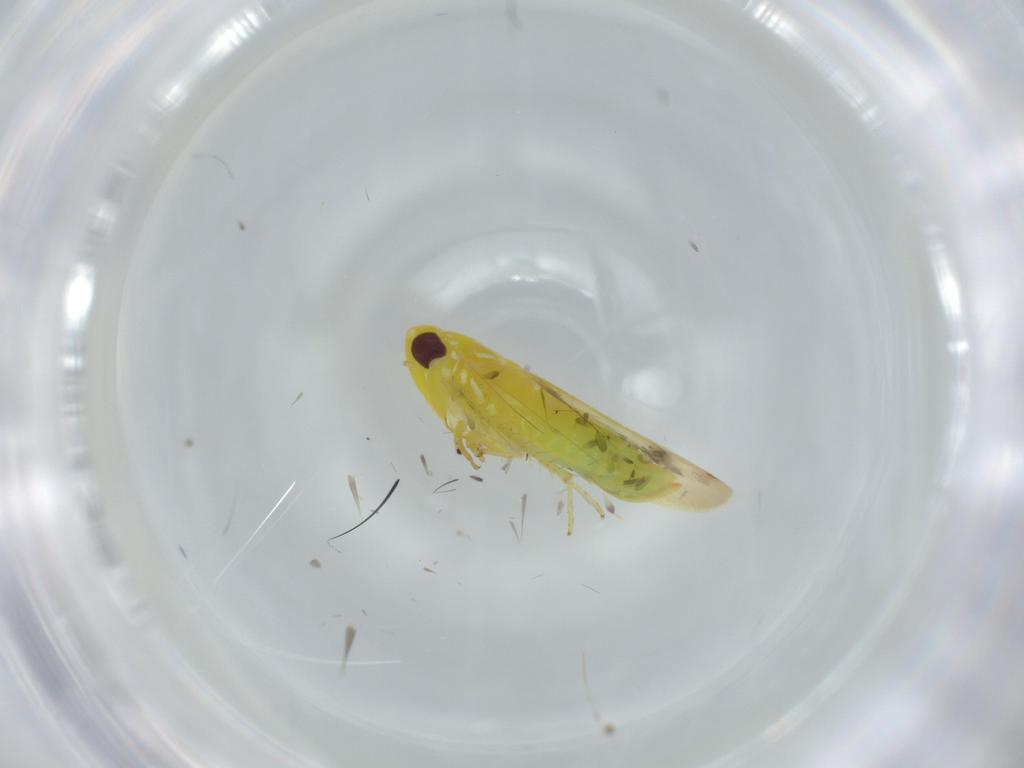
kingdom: Animalia
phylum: Arthropoda
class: Insecta
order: Hemiptera
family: Cicadellidae
